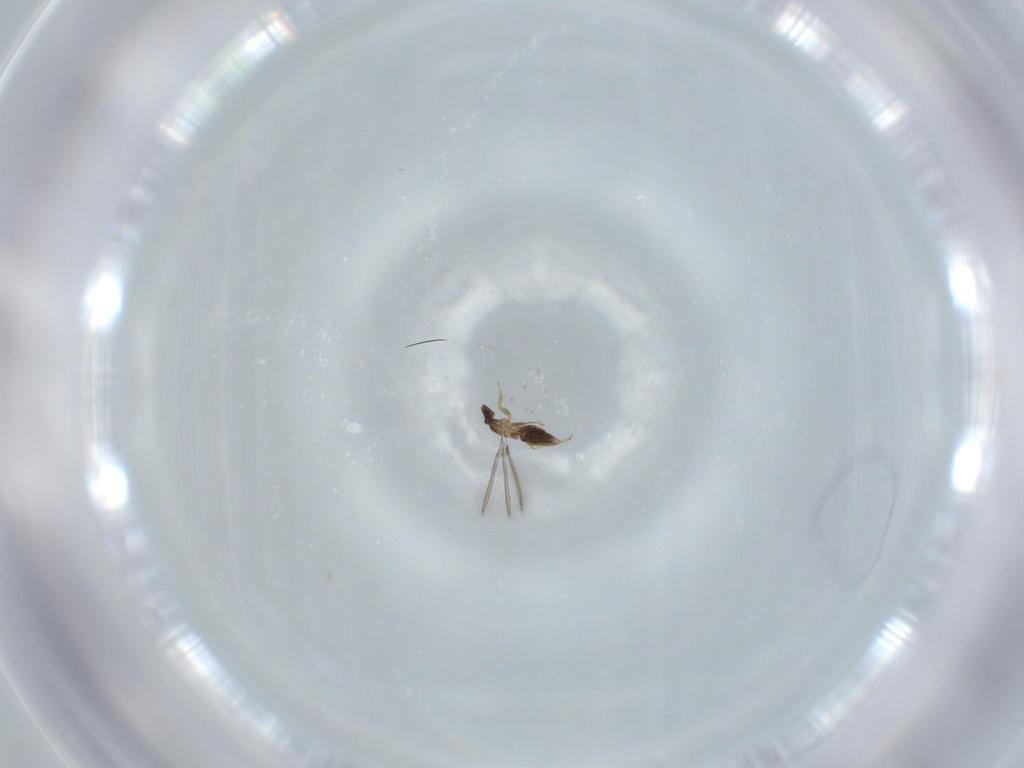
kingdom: Animalia
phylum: Arthropoda
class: Insecta
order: Hymenoptera
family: Mymaridae
